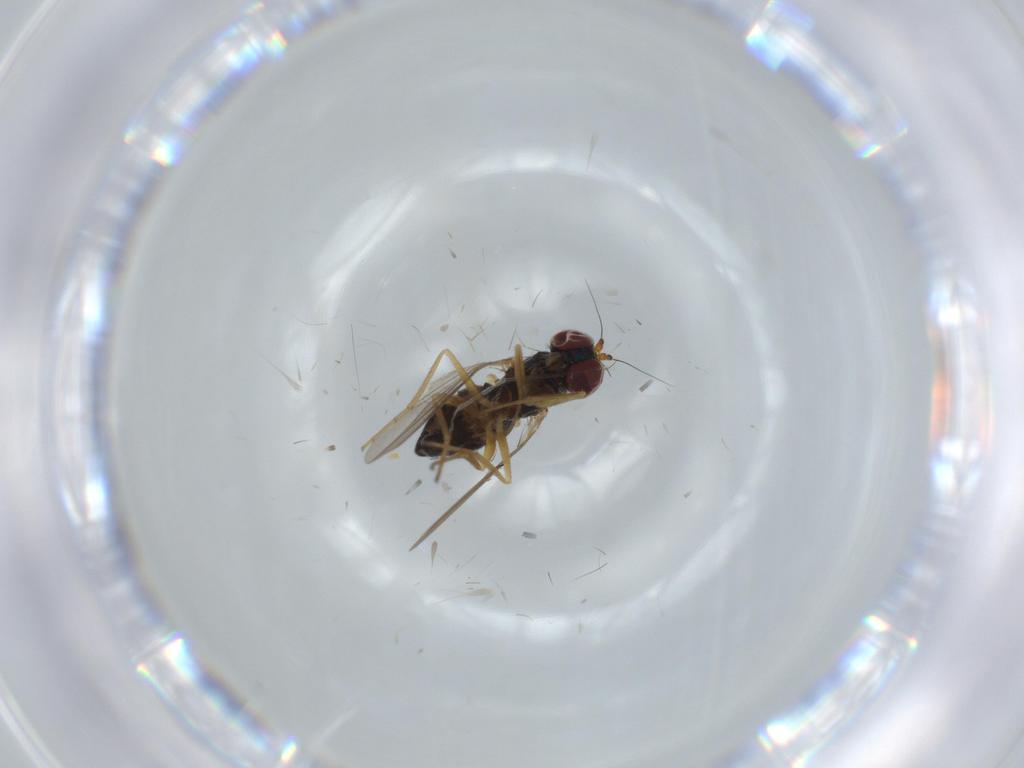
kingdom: Animalia
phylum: Arthropoda
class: Insecta
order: Diptera
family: Dolichopodidae
